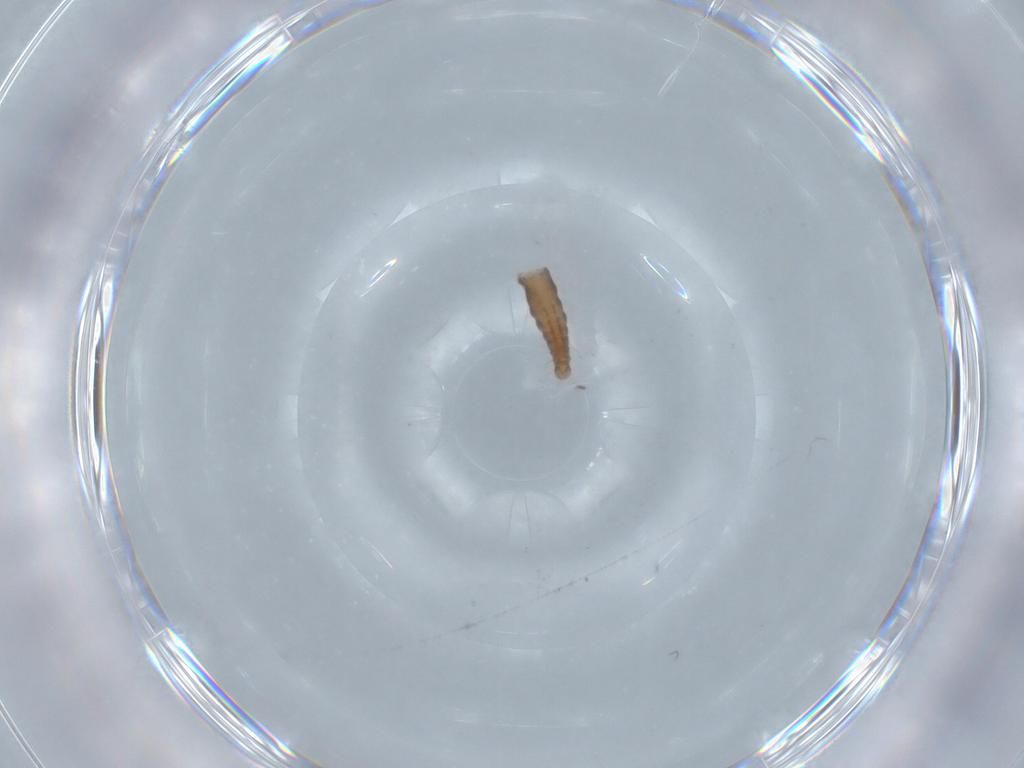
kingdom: Animalia
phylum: Arthropoda
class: Insecta
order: Diptera
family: Ceratopogonidae
